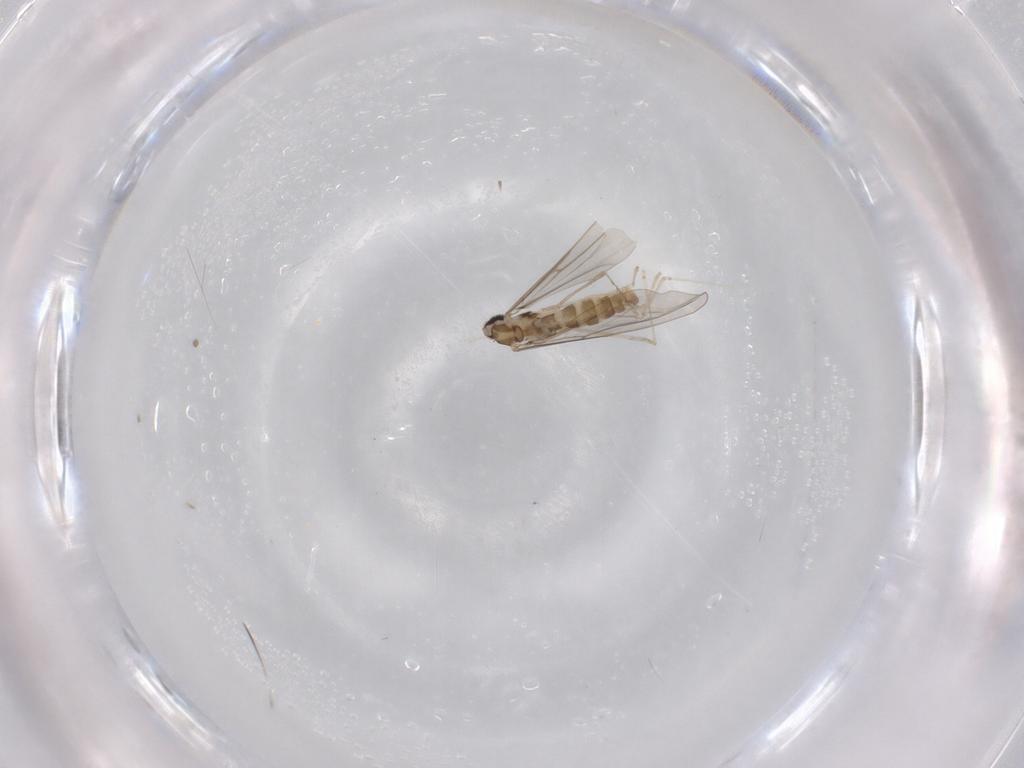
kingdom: Animalia
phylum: Arthropoda
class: Insecta
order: Diptera
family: Cecidomyiidae
